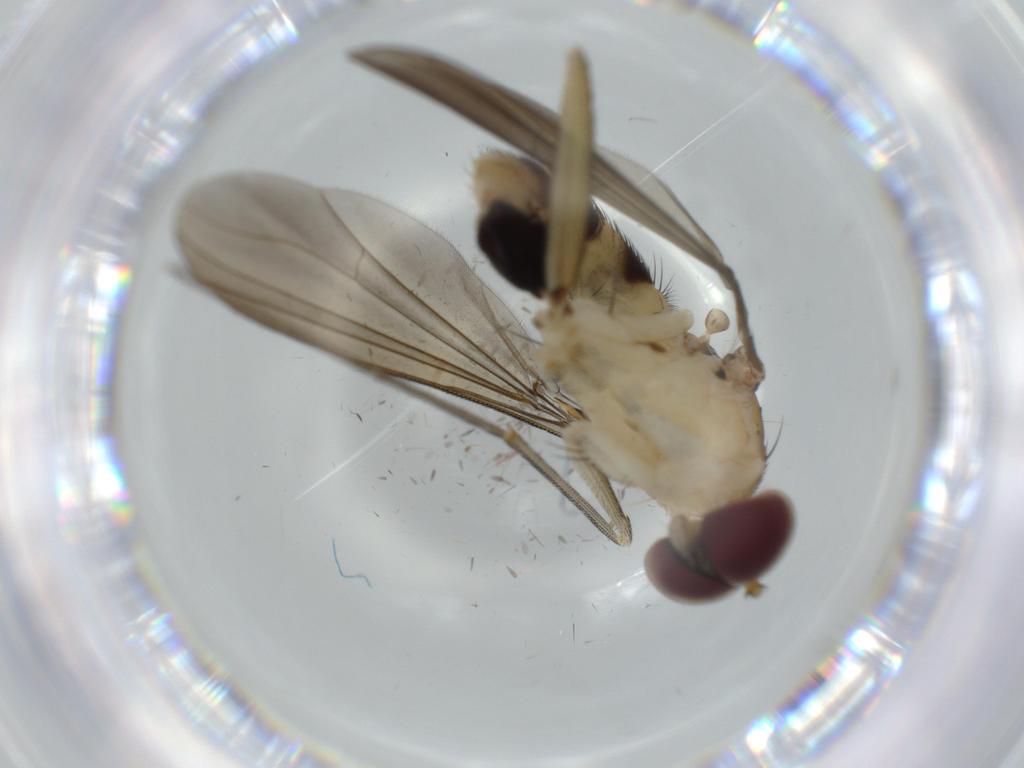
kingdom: Animalia
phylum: Arthropoda
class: Insecta
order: Diptera
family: Dolichopodidae
